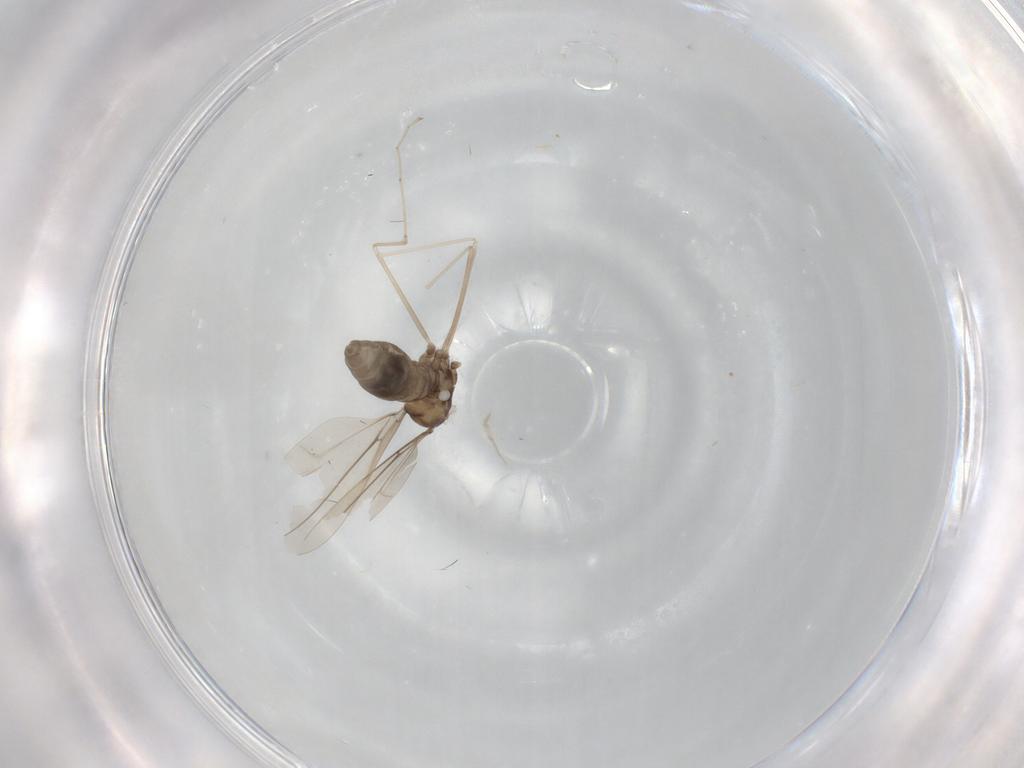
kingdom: Animalia
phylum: Arthropoda
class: Insecta
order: Diptera
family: Cecidomyiidae
